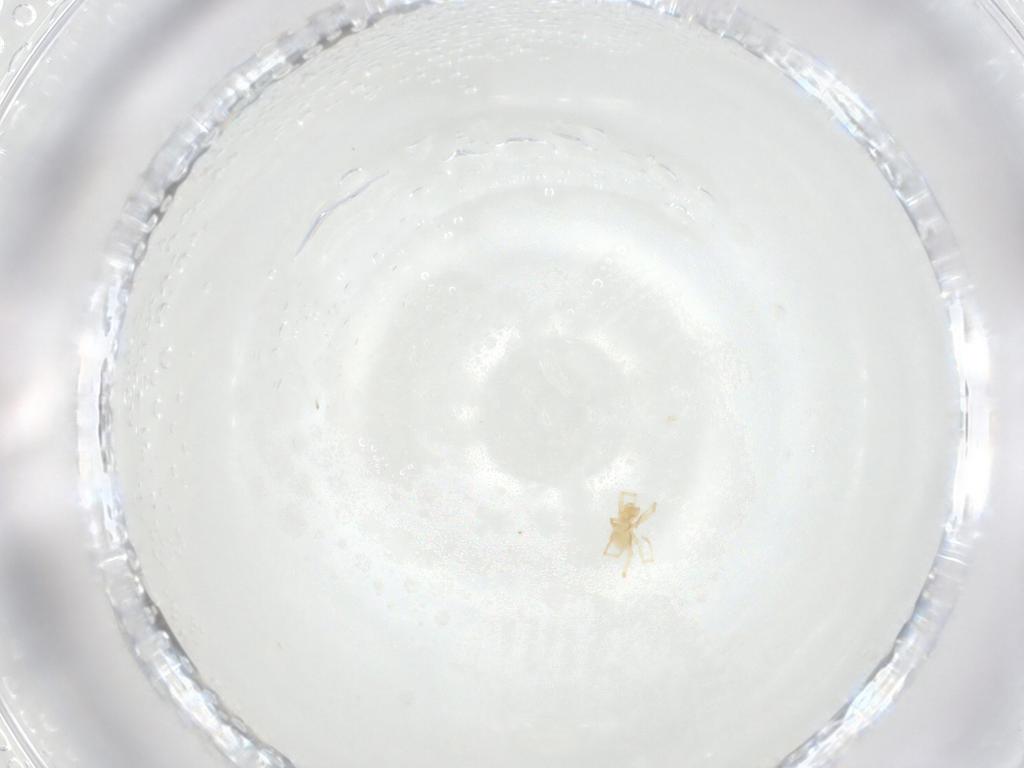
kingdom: Animalia
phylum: Arthropoda
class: Arachnida
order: Trombidiformes
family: Erythraeidae
